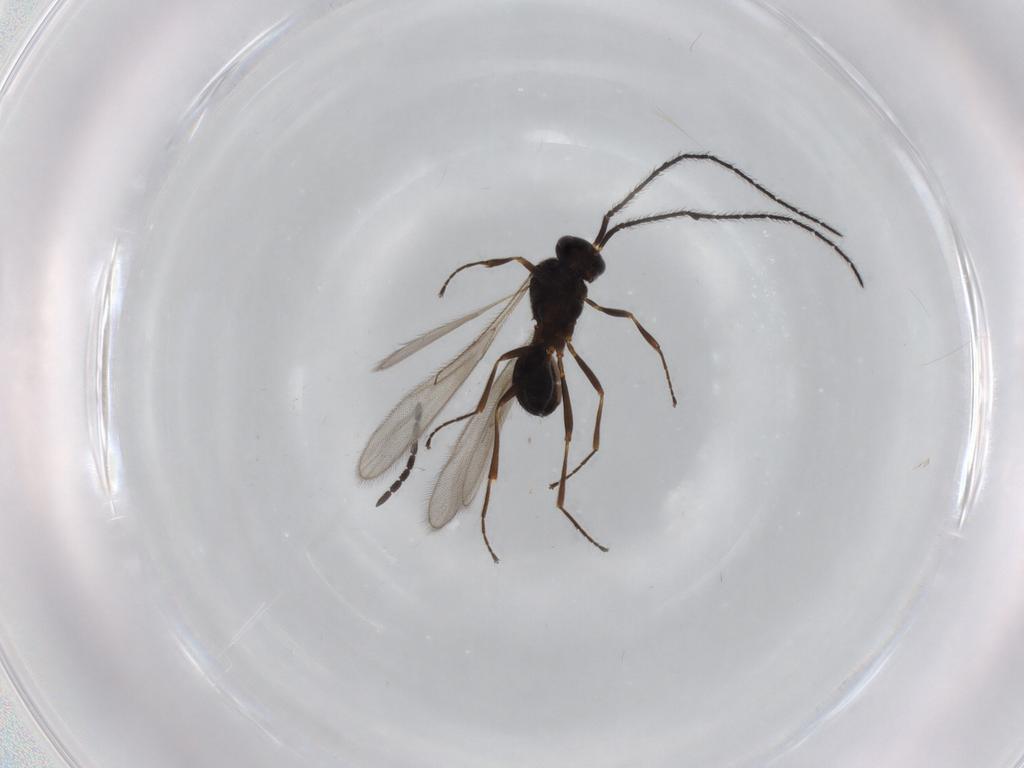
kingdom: Animalia
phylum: Arthropoda
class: Insecta
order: Hymenoptera
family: Diapriidae
